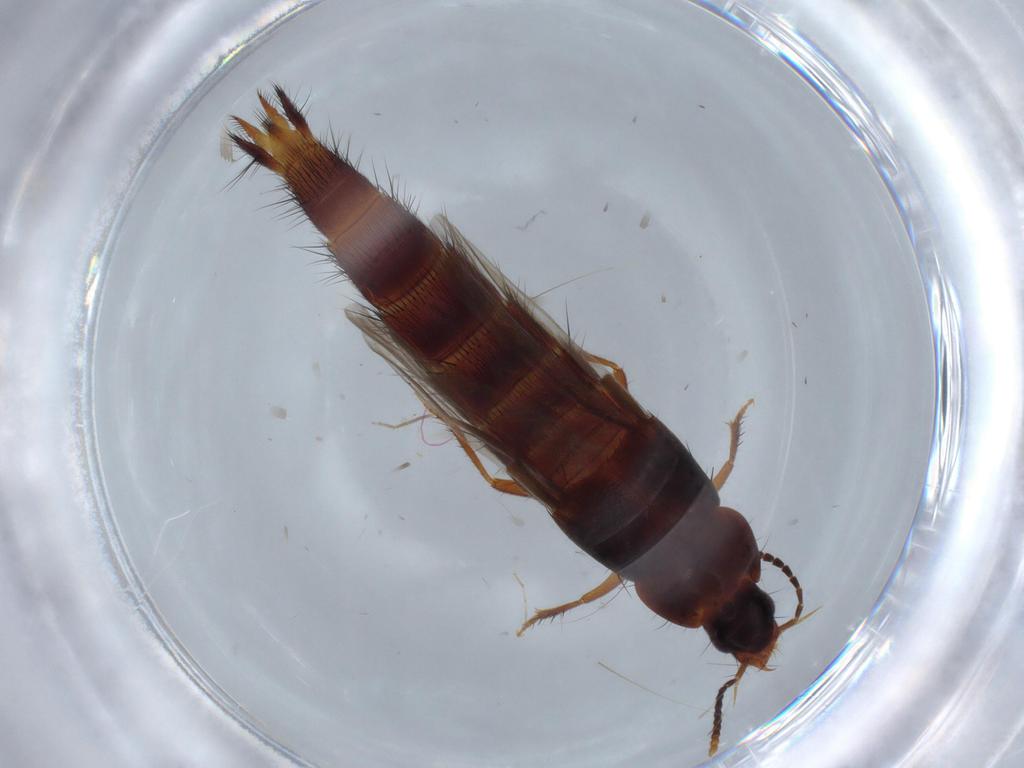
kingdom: Animalia
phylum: Arthropoda
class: Insecta
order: Coleoptera
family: Staphylinidae
